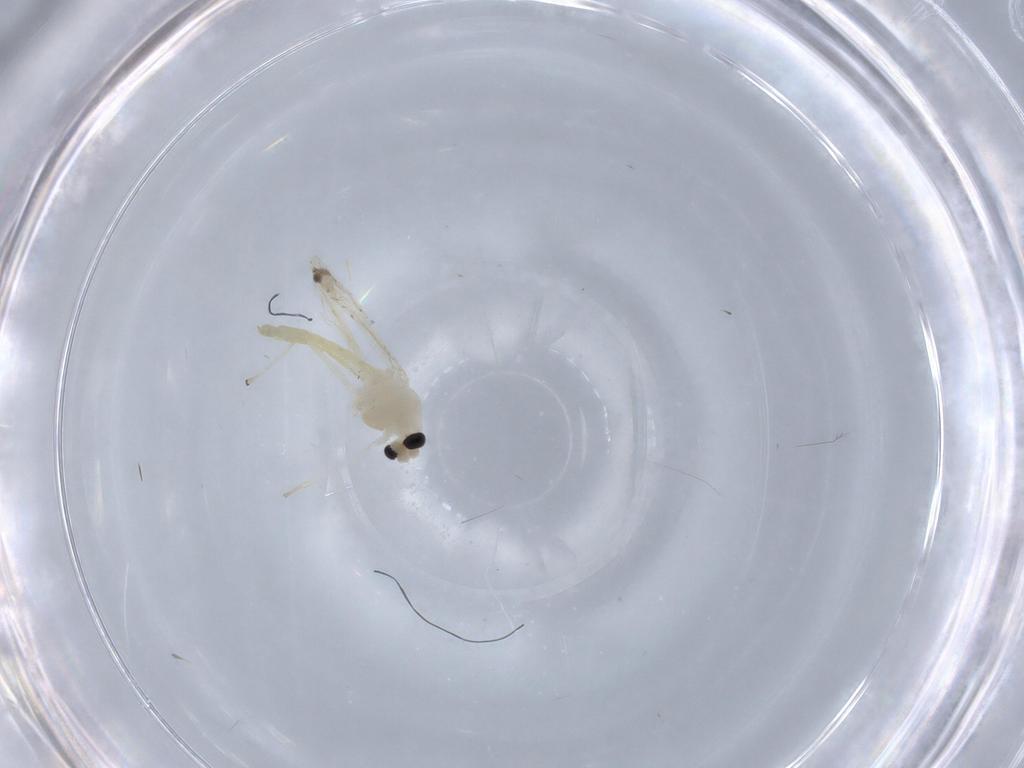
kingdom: Animalia
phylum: Arthropoda
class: Insecta
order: Diptera
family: Chironomidae
